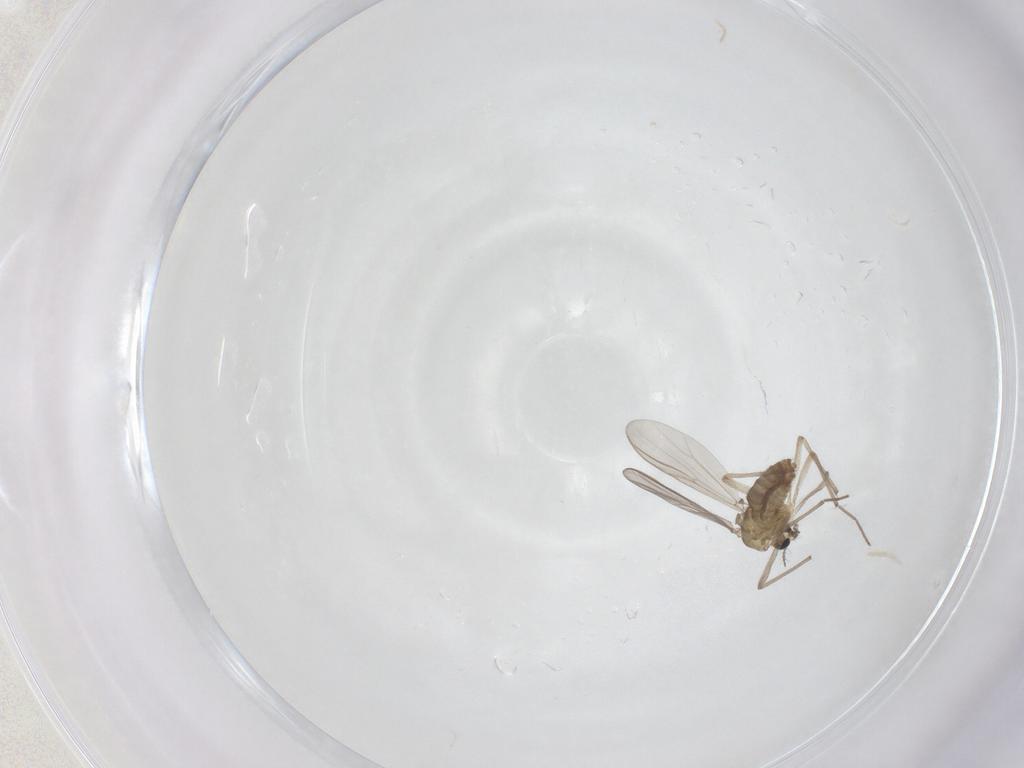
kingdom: Animalia
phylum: Arthropoda
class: Insecta
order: Diptera
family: Chironomidae
